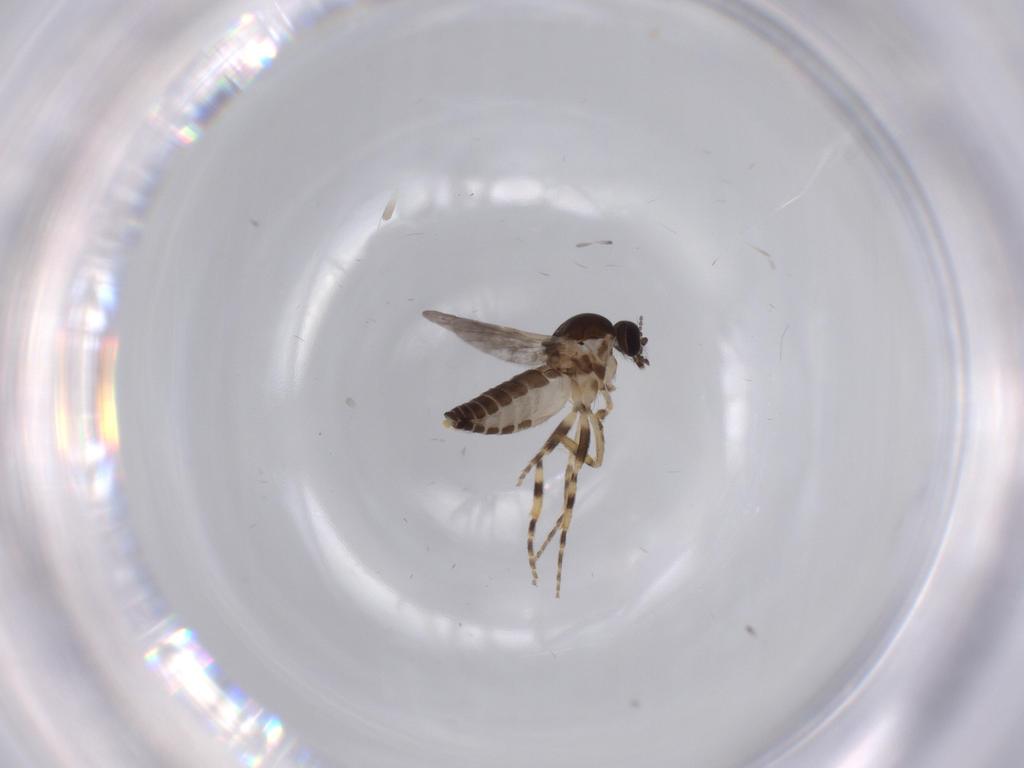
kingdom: Animalia
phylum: Arthropoda
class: Insecta
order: Diptera
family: Ceratopogonidae
